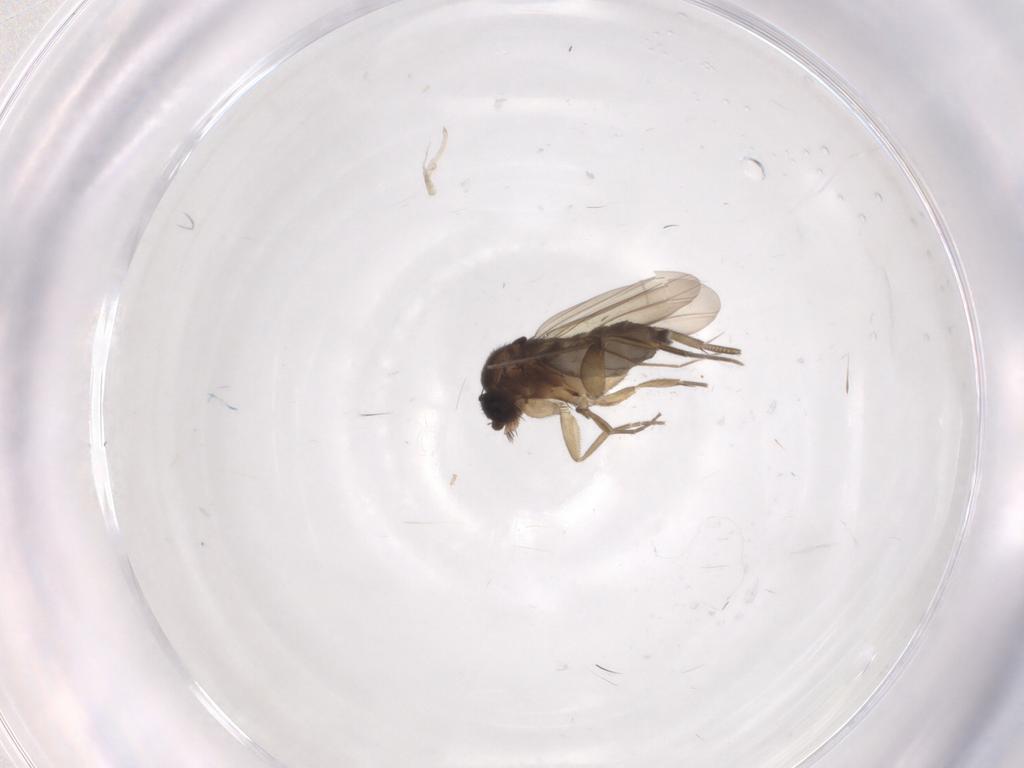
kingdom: Animalia
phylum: Arthropoda
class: Insecta
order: Diptera
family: Phoridae
